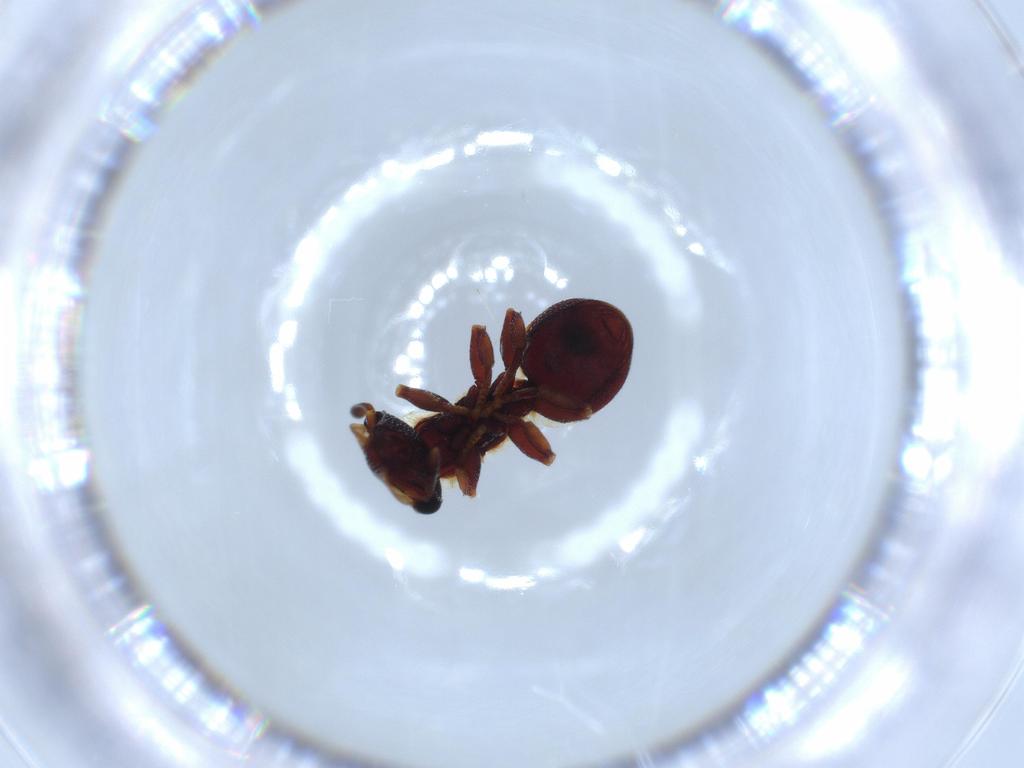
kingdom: Animalia
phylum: Arthropoda
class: Insecta
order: Hymenoptera
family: Formicidae
